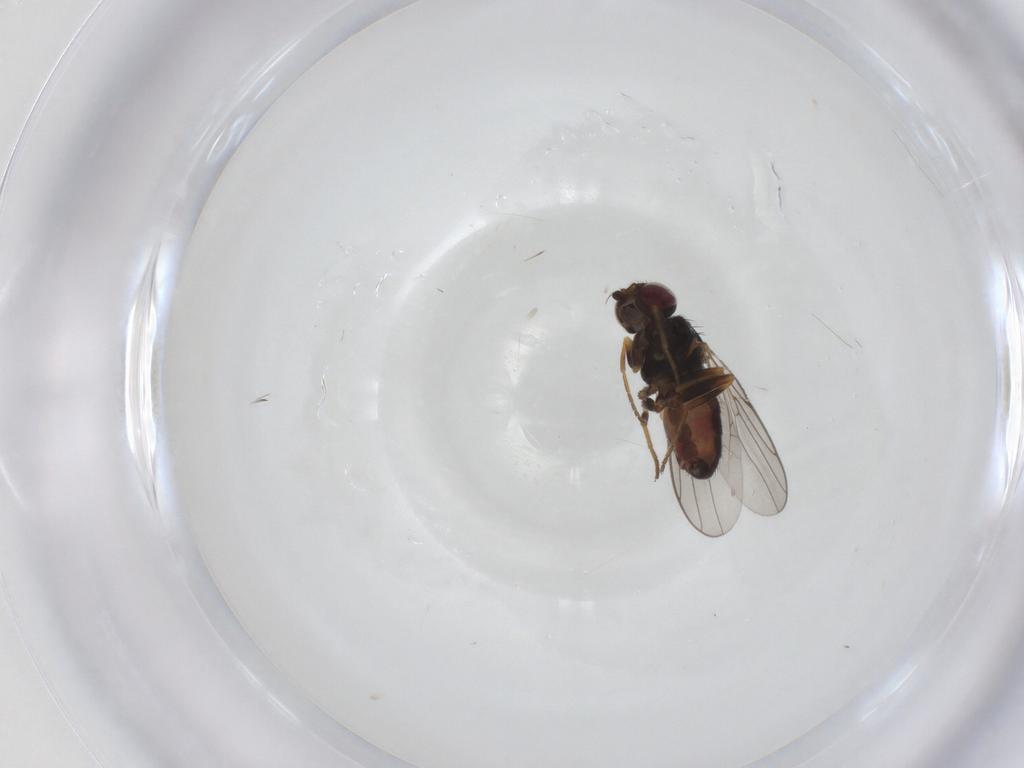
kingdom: Animalia
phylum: Arthropoda
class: Insecta
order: Diptera
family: Chloropidae
